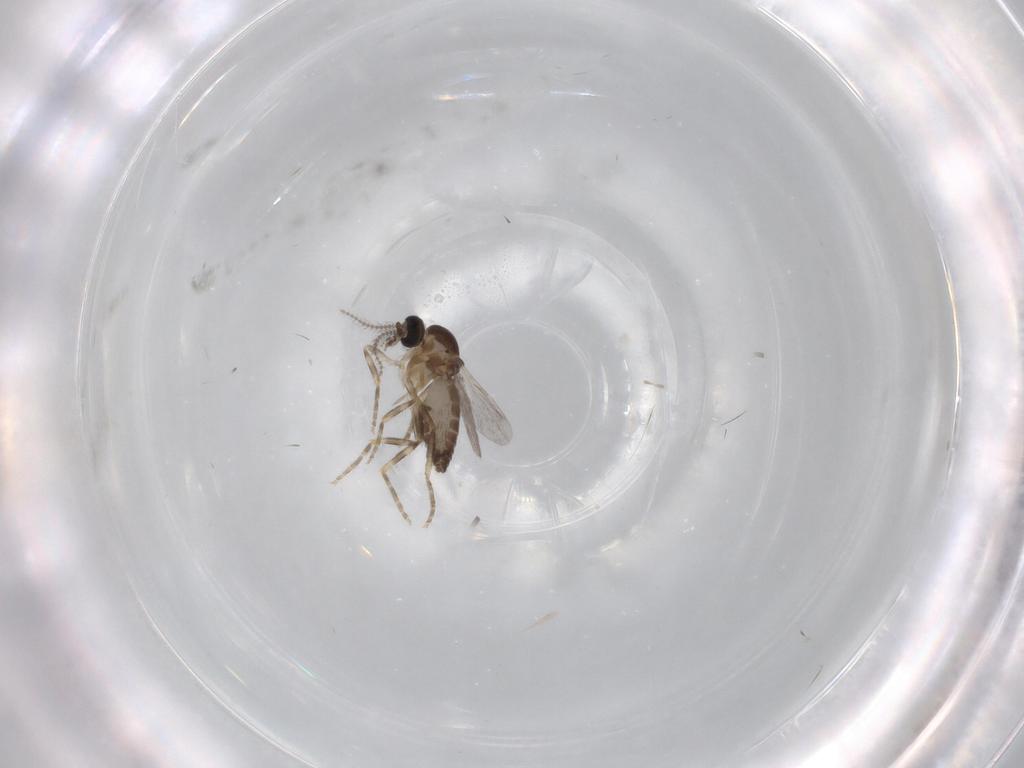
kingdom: Animalia
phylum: Arthropoda
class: Insecta
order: Diptera
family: Ceratopogonidae
